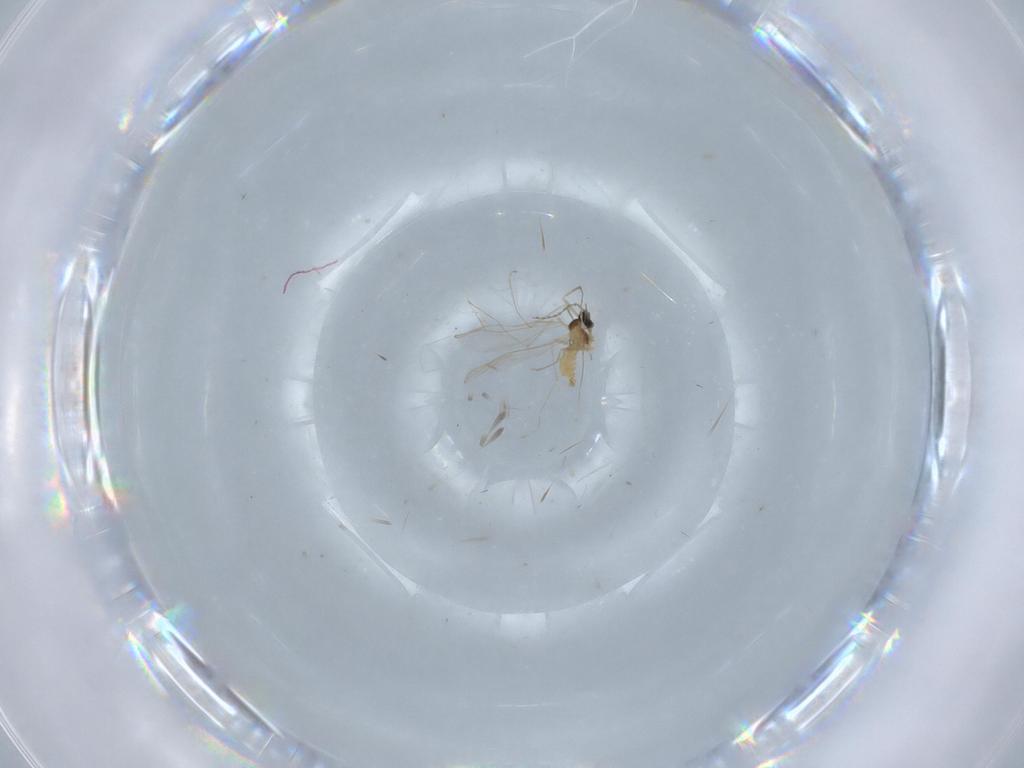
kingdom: Animalia
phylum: Arthropoda
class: Insecta
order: Diptera
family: Cecidomyiidae
